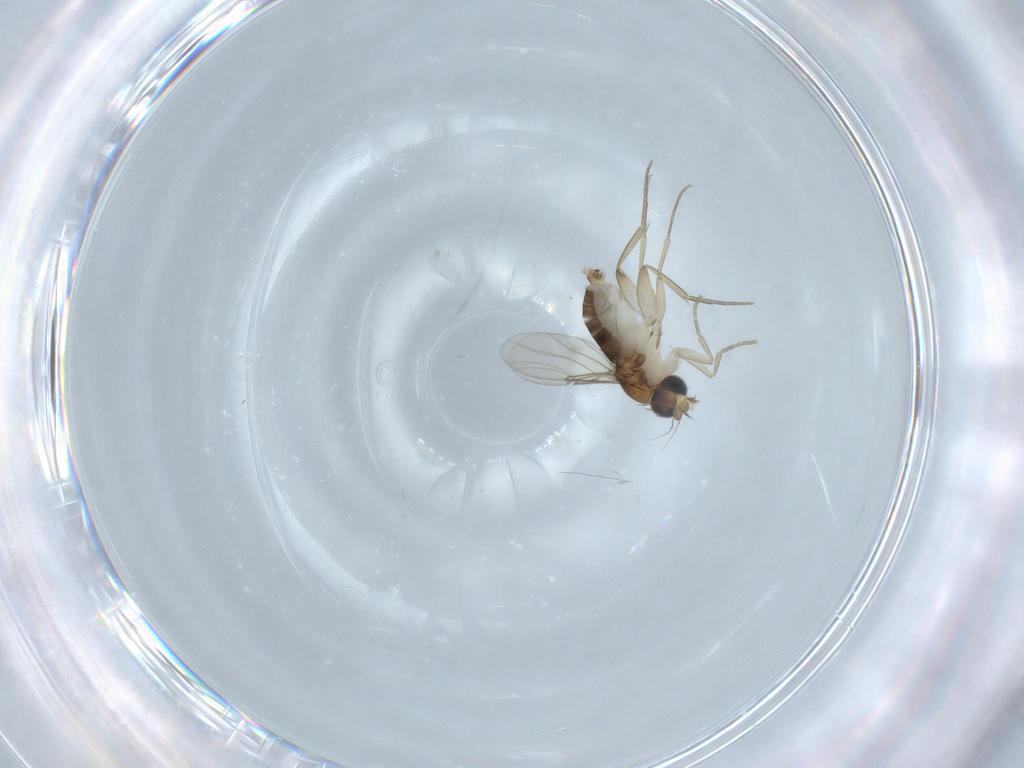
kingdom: Animalia
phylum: Arthropoda
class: Insecta
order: Diptera
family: Phoridae
